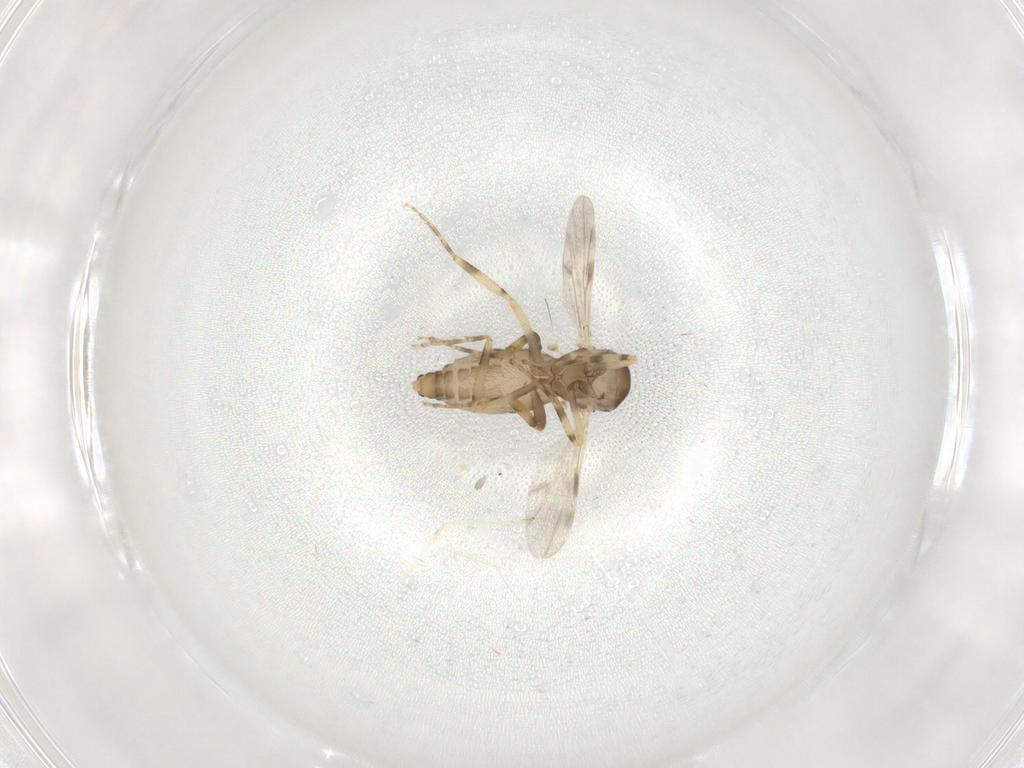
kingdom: Animalia
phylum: Arthropoda
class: Insecta
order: Diptera
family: Ceratopogonidae
